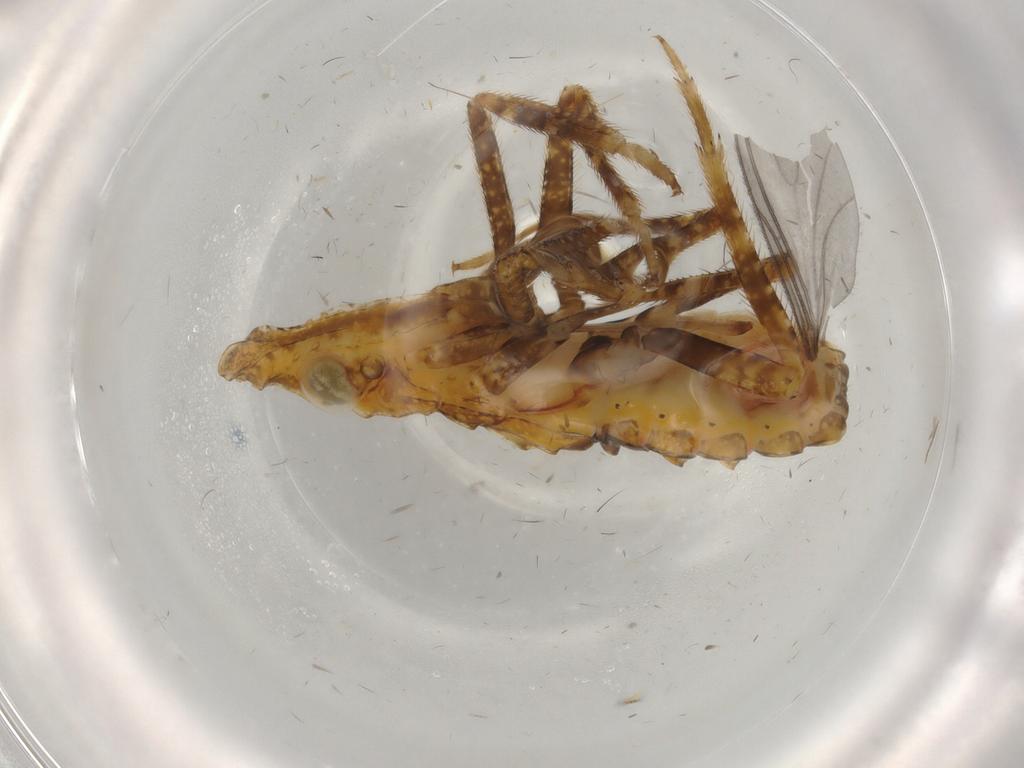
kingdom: Animalia
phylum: Arthropoda
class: Insecta
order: Hemiptera
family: Fulgoridae
